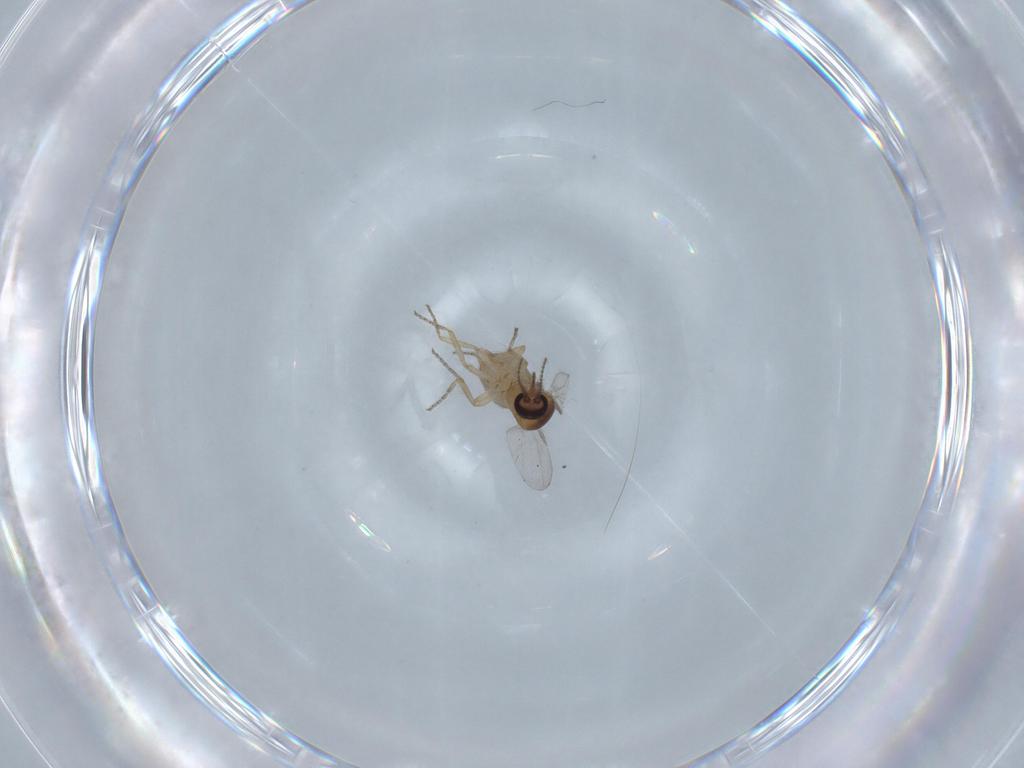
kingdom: Animalia
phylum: Arthropoda
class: Insecta
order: Diptera
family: Ceratopogonidae
